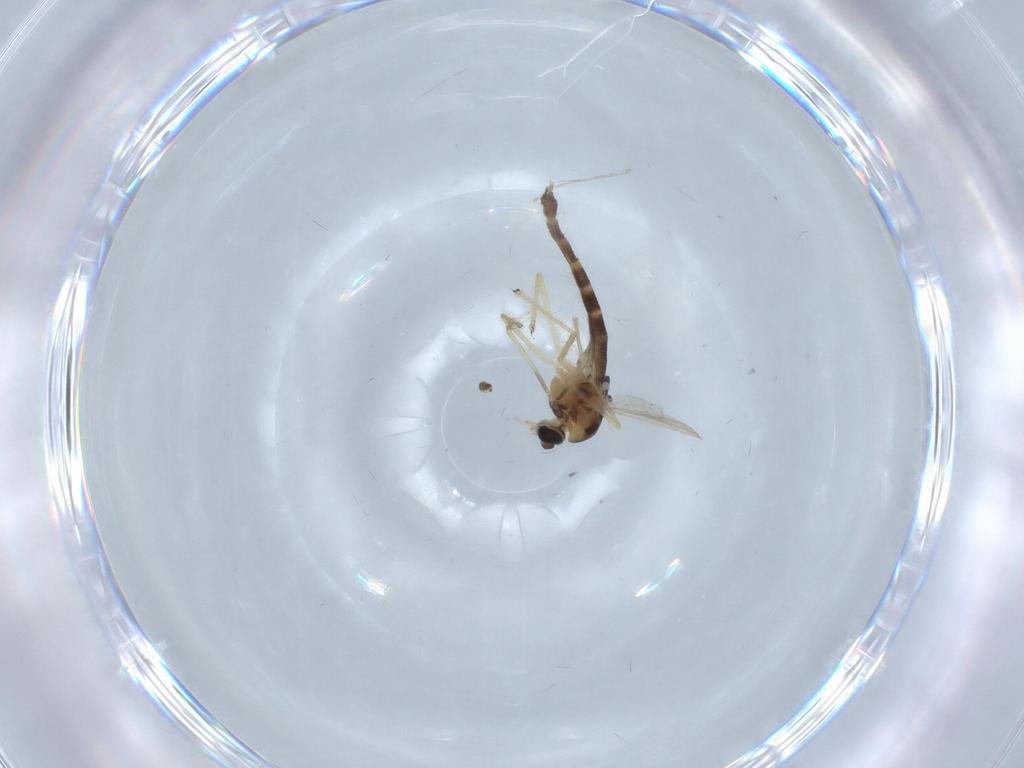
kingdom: Animalia
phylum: Arthropoda
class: Insecta
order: Diptera
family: Chironomidae
